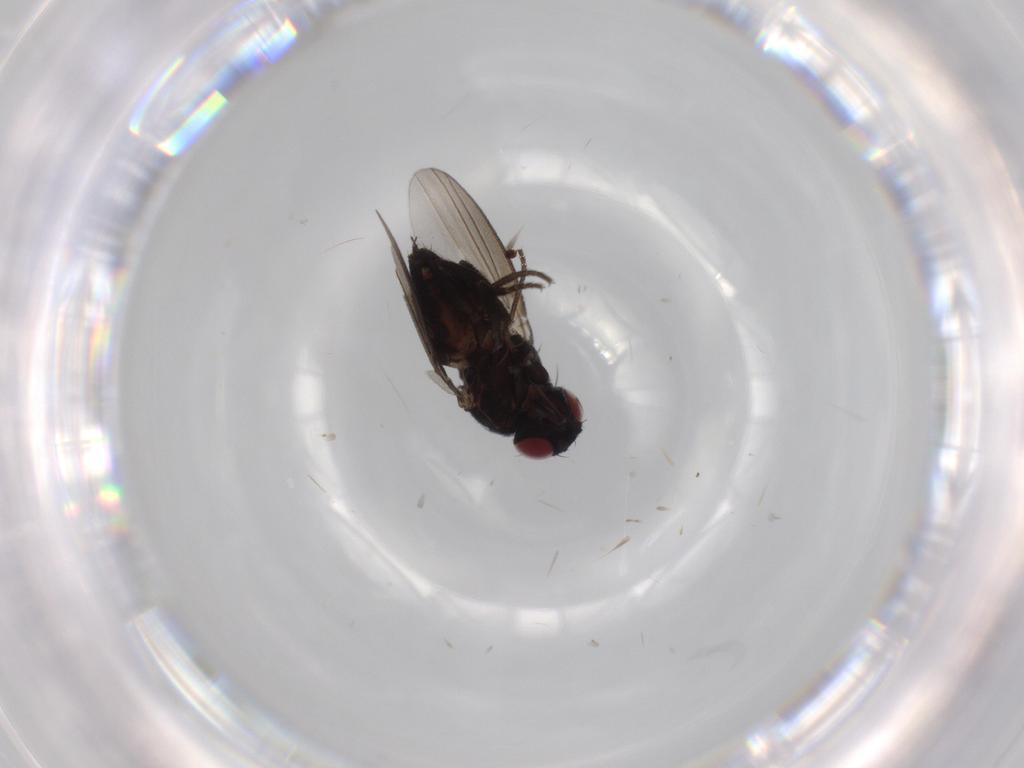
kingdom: Animalia
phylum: Arthropoda
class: Insecta
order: Diptera
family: Milichiidae
